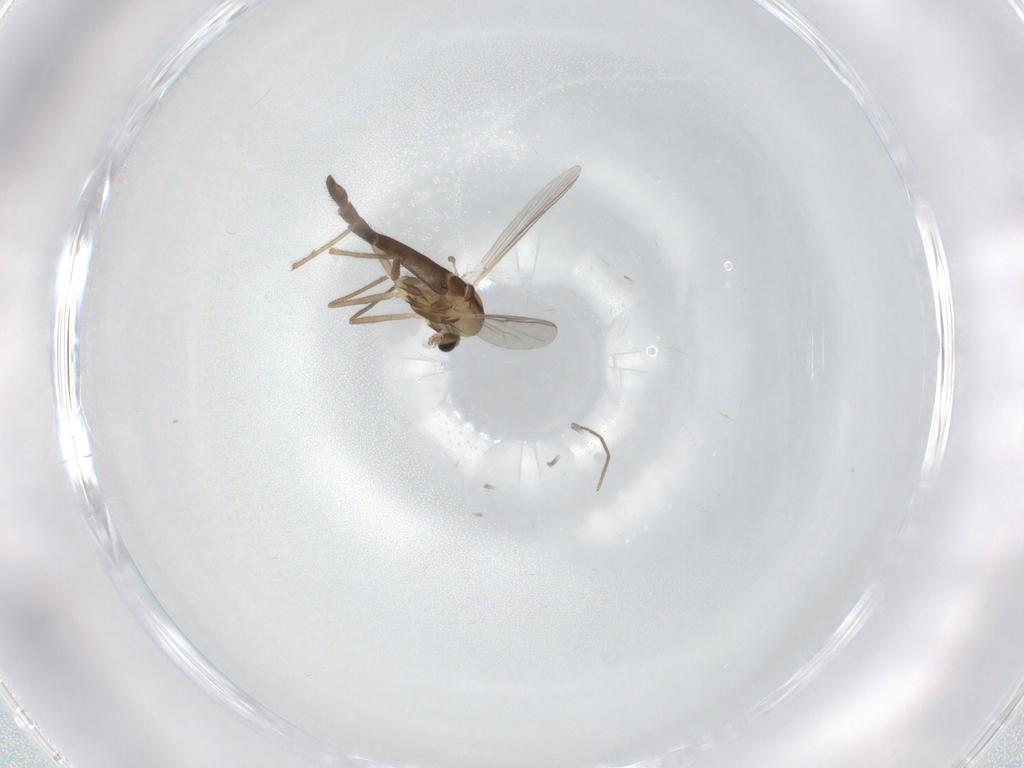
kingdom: Animalia
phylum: Arthropoda
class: Insecta
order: Diptera
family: Chironomidae
